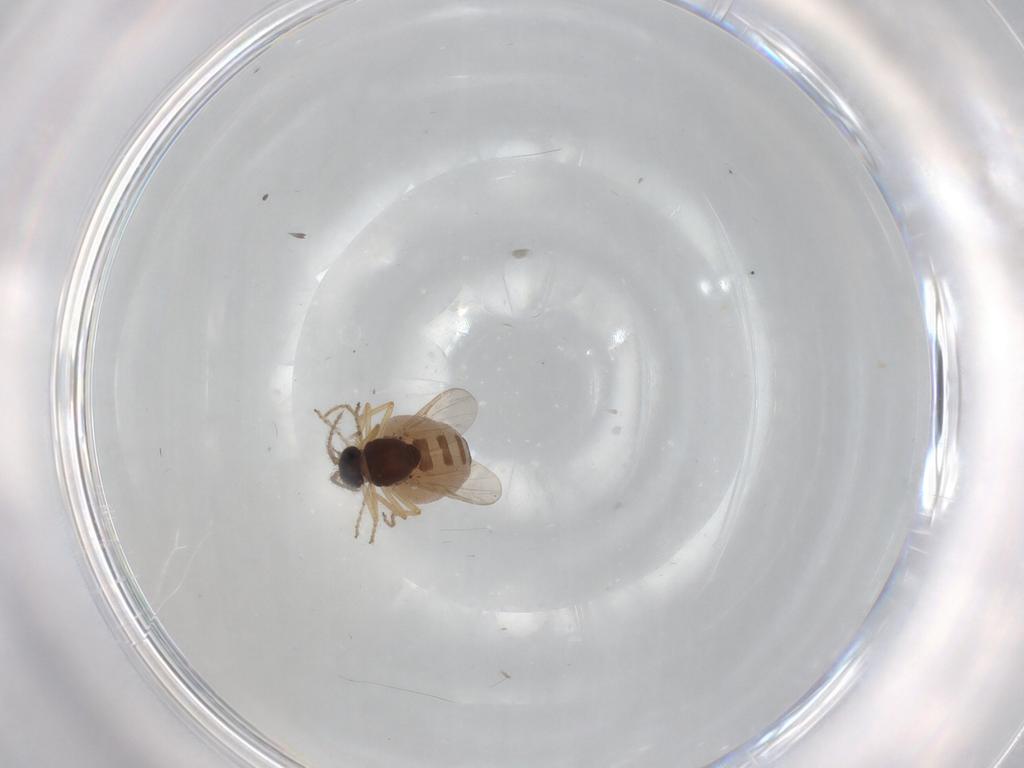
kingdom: Animalia
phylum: Arthropoda
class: Insecta
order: Diptera
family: Ceratopogonidae
